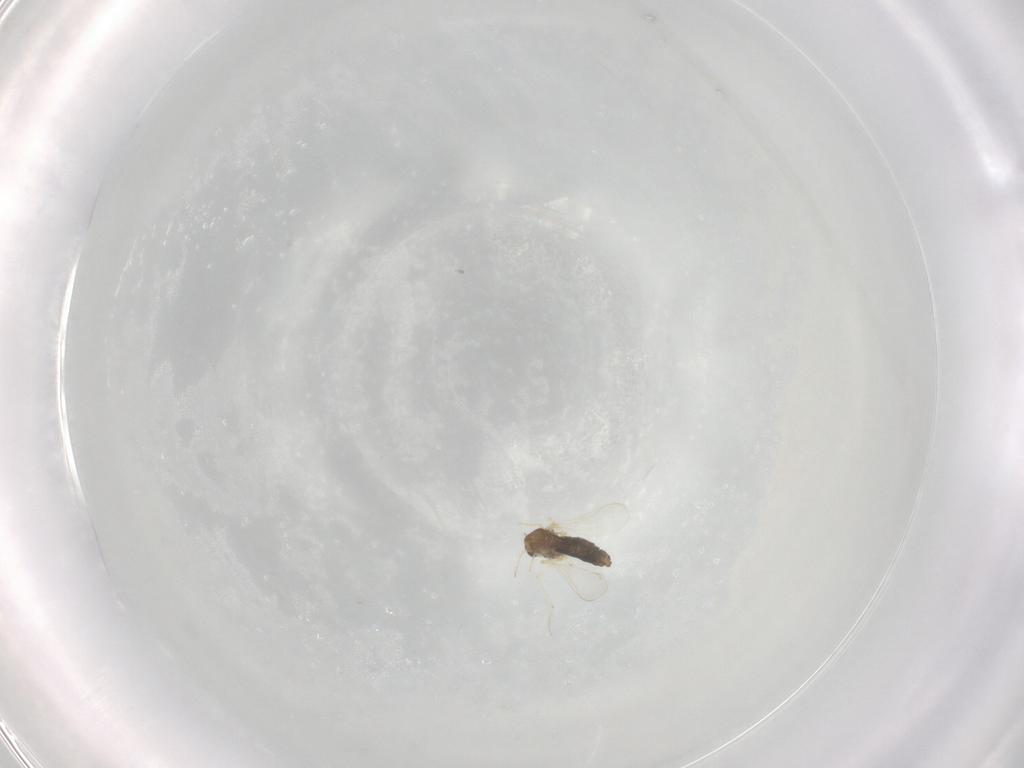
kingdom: Animalia
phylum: Arthropoda
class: Insecta
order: Diptera
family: Chironomidae
